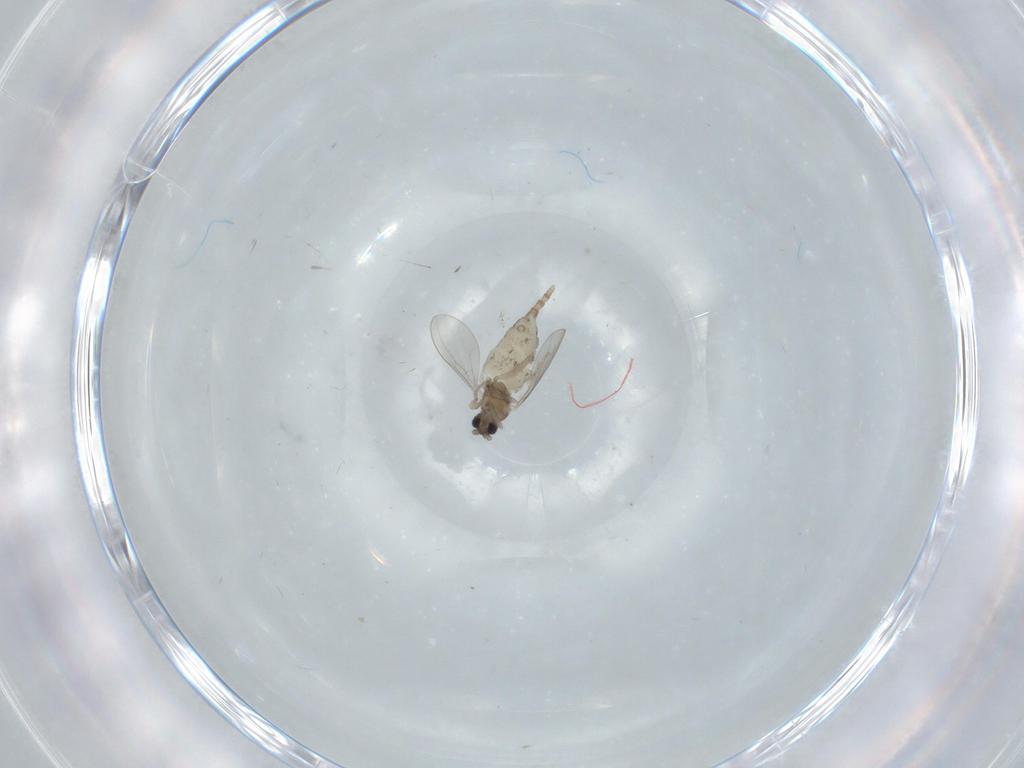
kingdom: Animalia
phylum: Arthropoda
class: Insecta
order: Diptera
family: Cecidomyiidae
